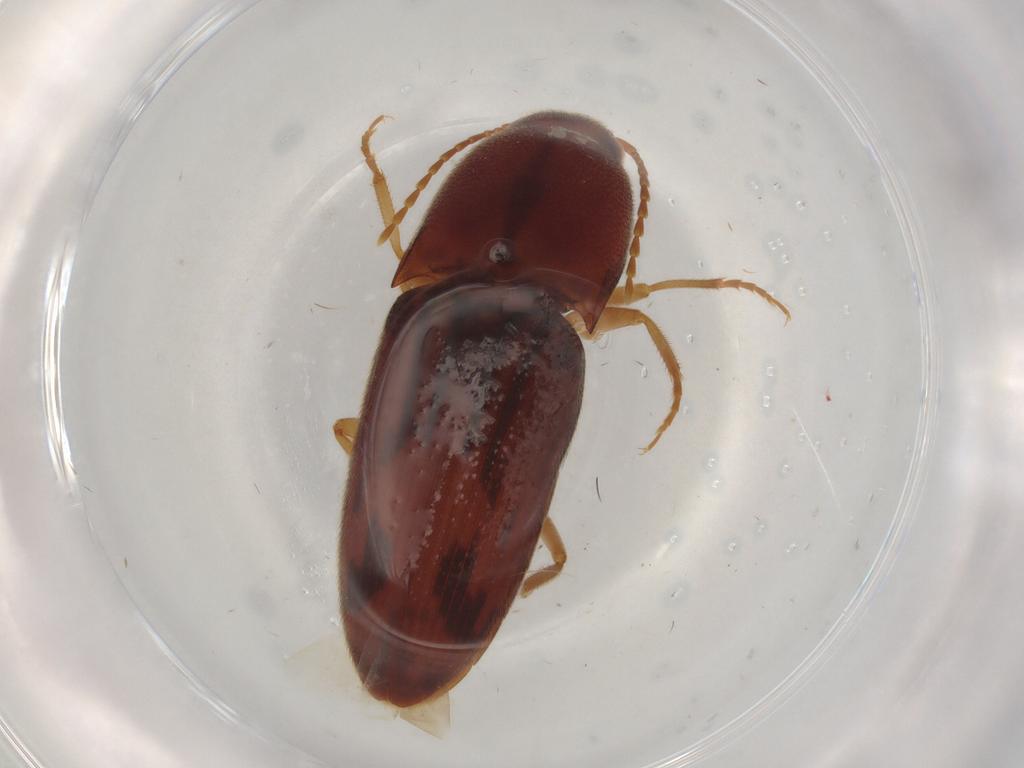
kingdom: Animalia
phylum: Arthropoda
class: Insecta
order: Coleoptera
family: Elateridae
